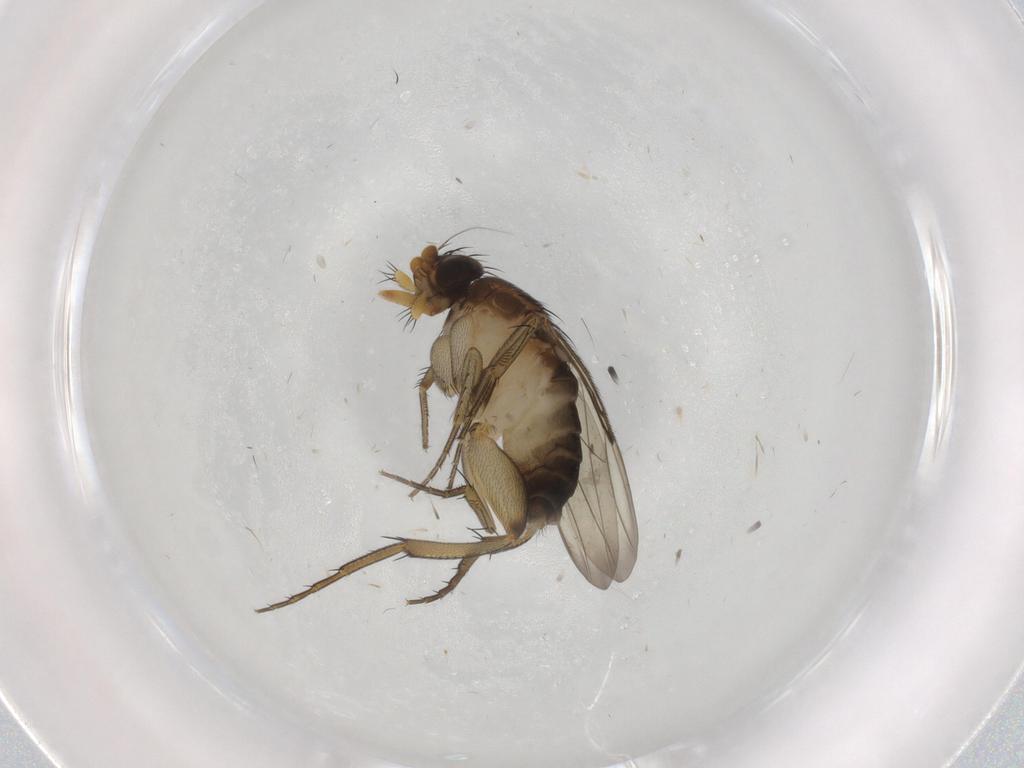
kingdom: Animalia
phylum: Arthropoda
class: Insecta
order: Diptera
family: Phoridae
